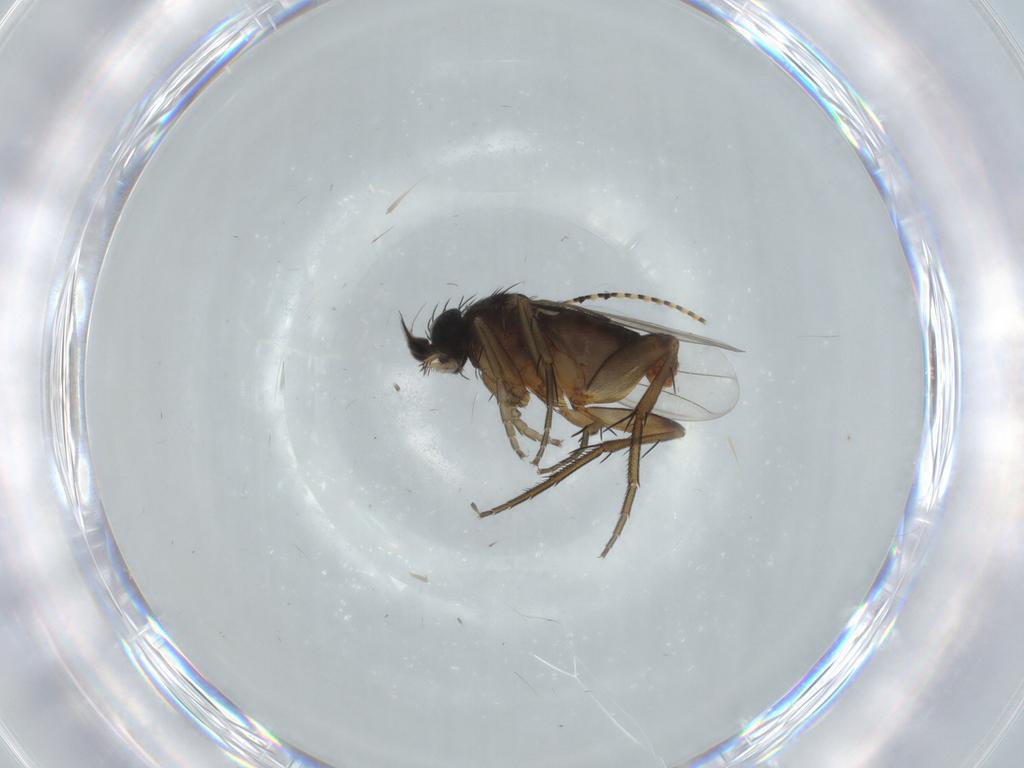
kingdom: Animalia
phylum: Arthropoda
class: Insecta
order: Diptera
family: Phoridae
